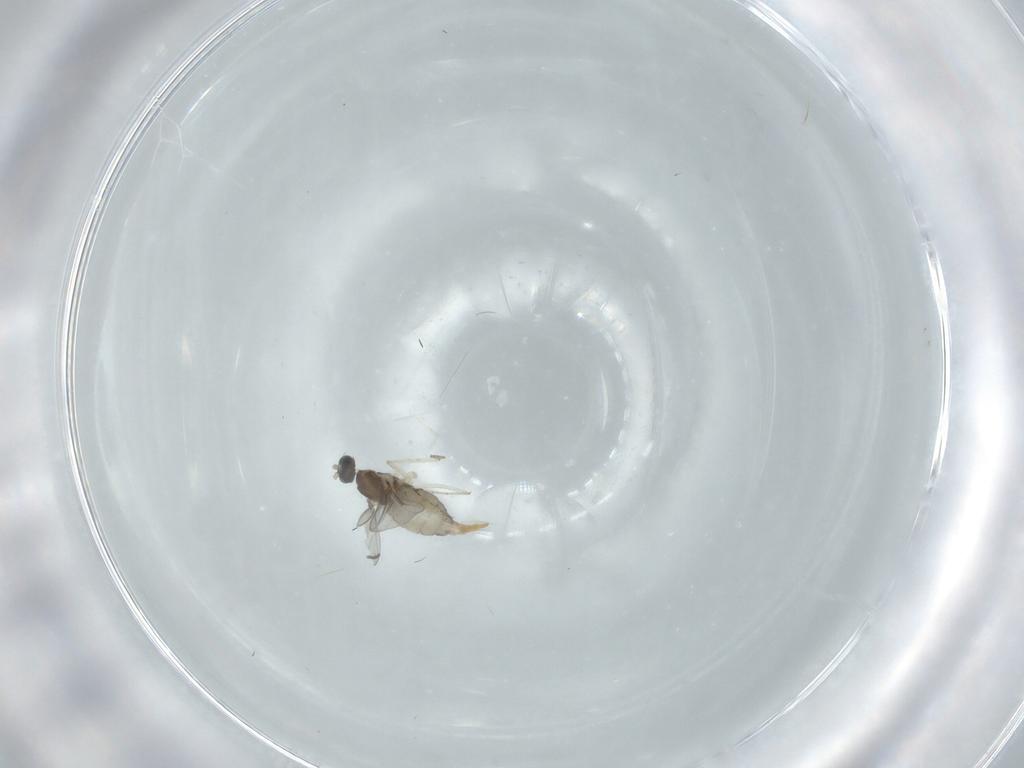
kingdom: Animalia
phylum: Arthropoda
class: Insecta
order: Diptera
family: Cecidomyiidae
